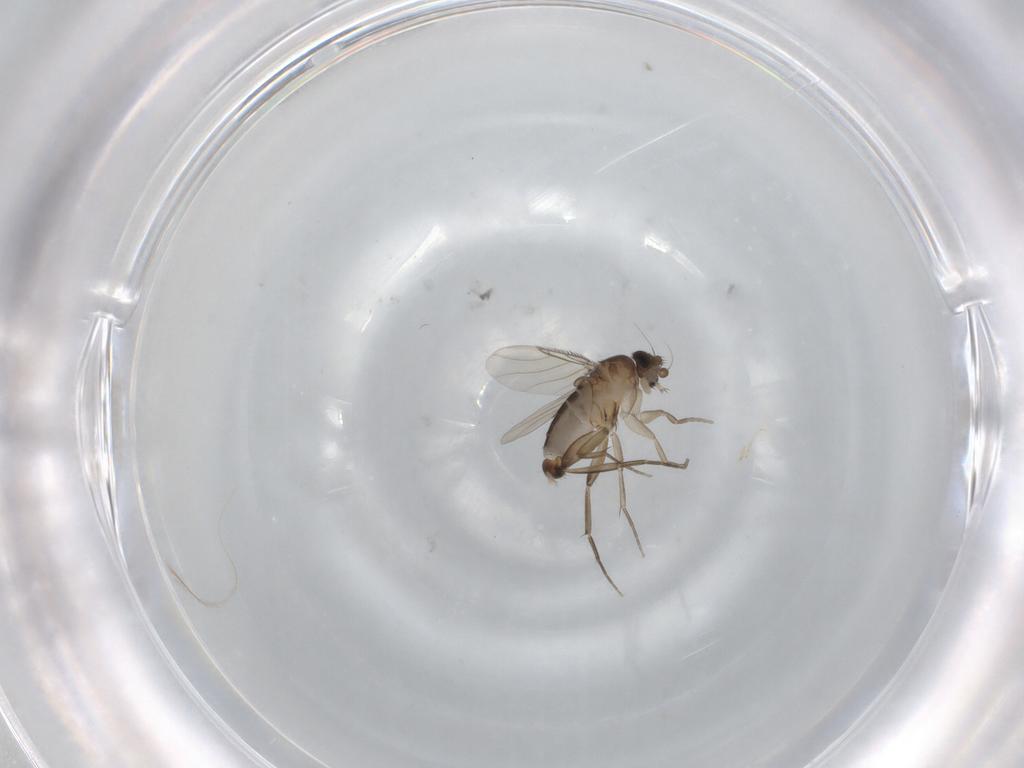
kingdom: Animalia
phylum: Arthropoda
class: Insecta
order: Diptera
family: Phoridae
